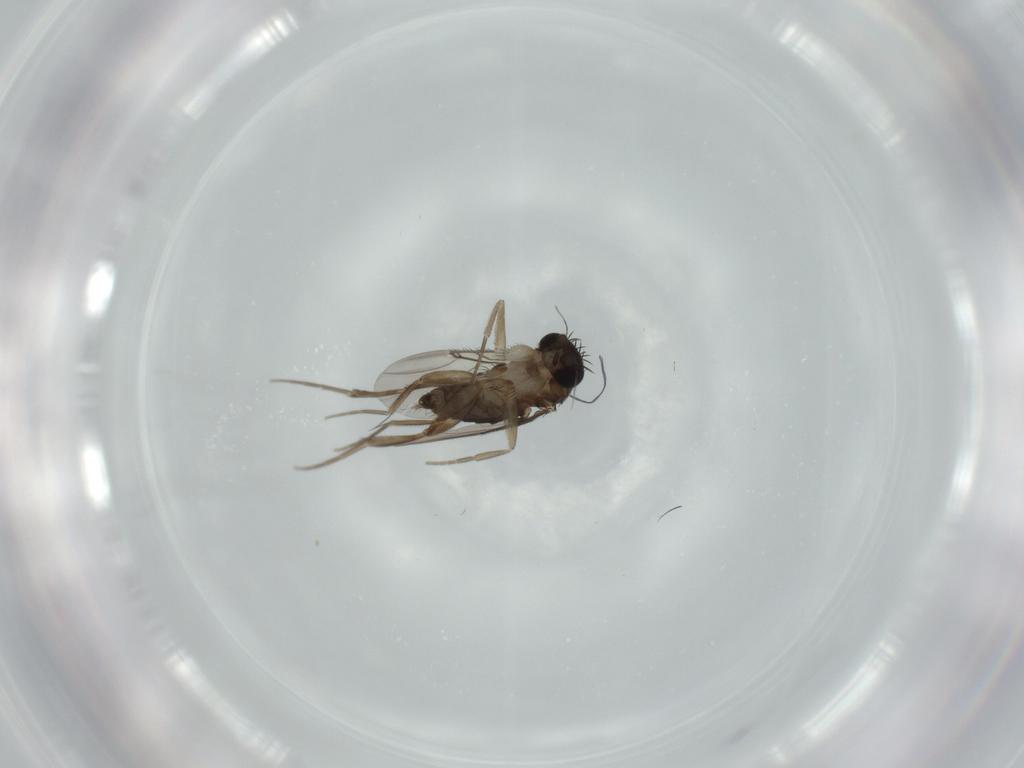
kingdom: Animalia
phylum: Arthropoda
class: Insecta
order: Diptera
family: Phoridae
